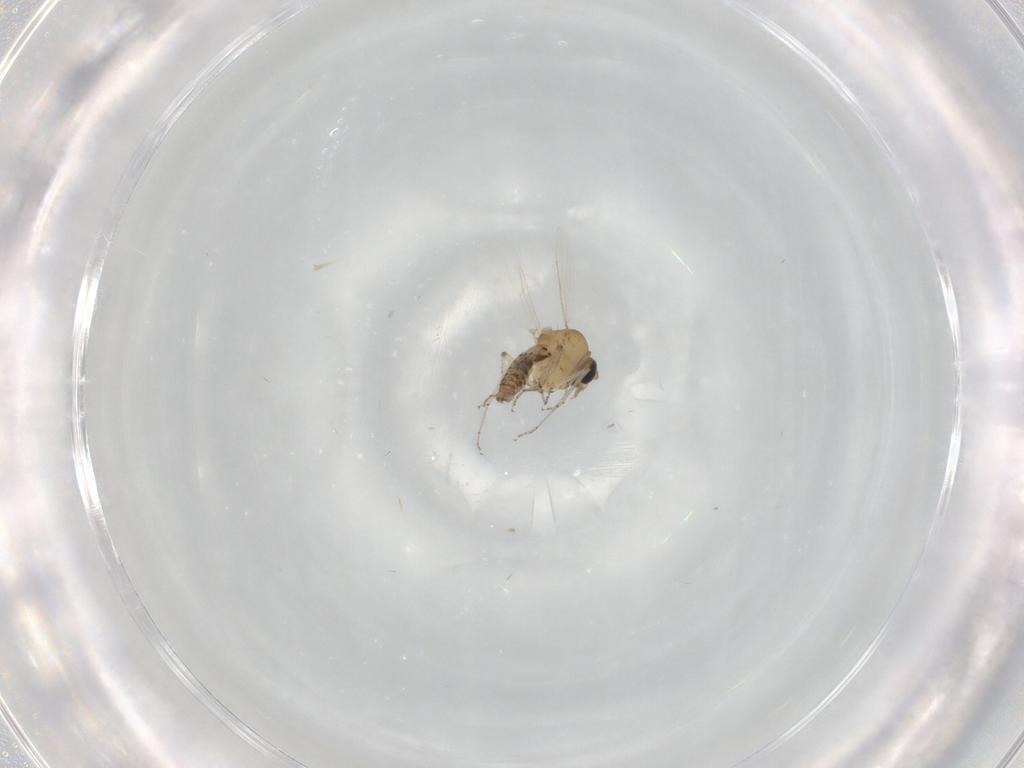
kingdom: Animalia
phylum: Arthropoda
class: Insecta
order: Diptera
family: Ceratopogonidae
